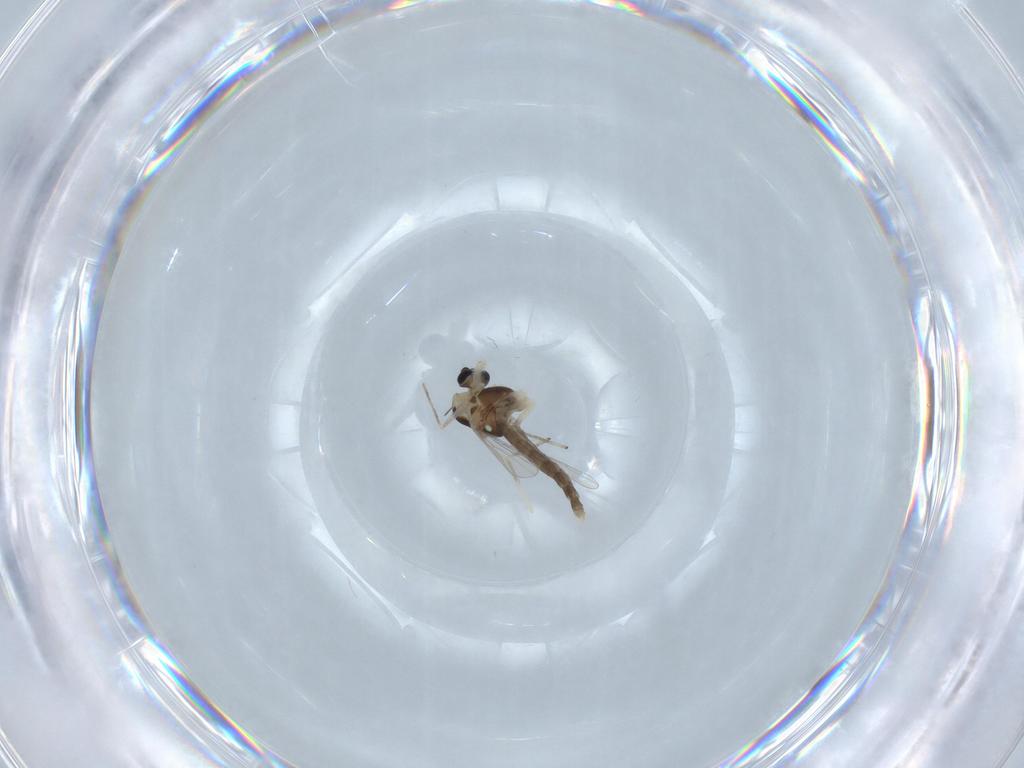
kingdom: Animalia
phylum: Arthropoda
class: Insecta
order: Diptera
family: Chironomidae
